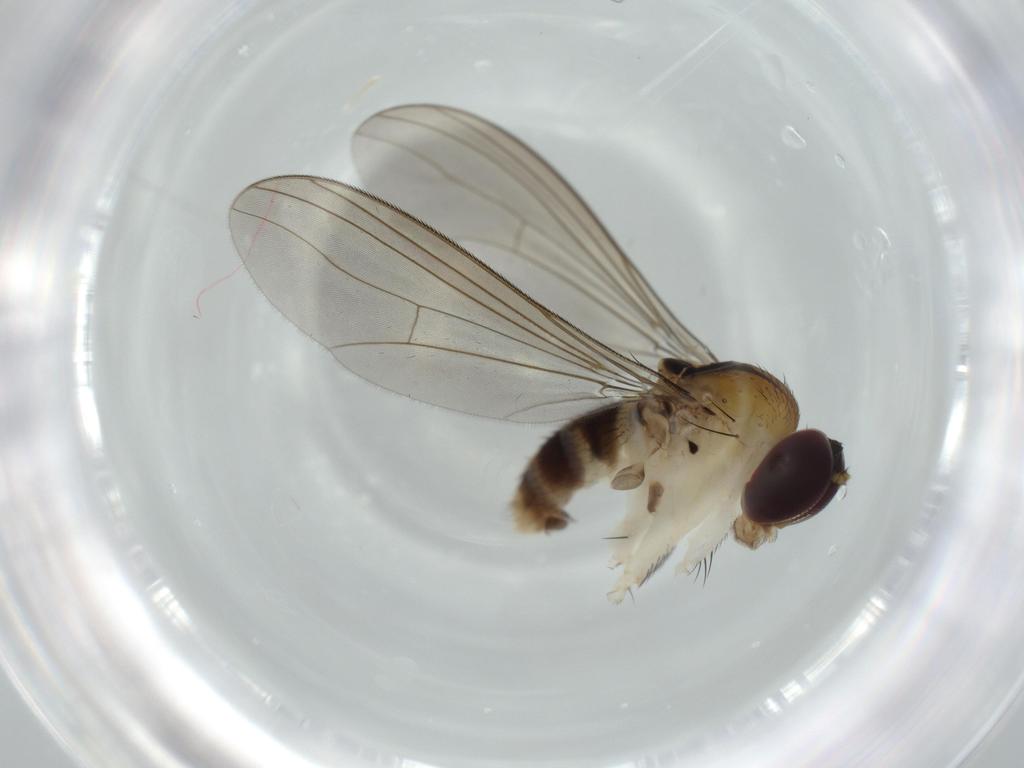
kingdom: Animalia
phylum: Arthropoda
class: Insecta
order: Diptera
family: Dolichopodidae
